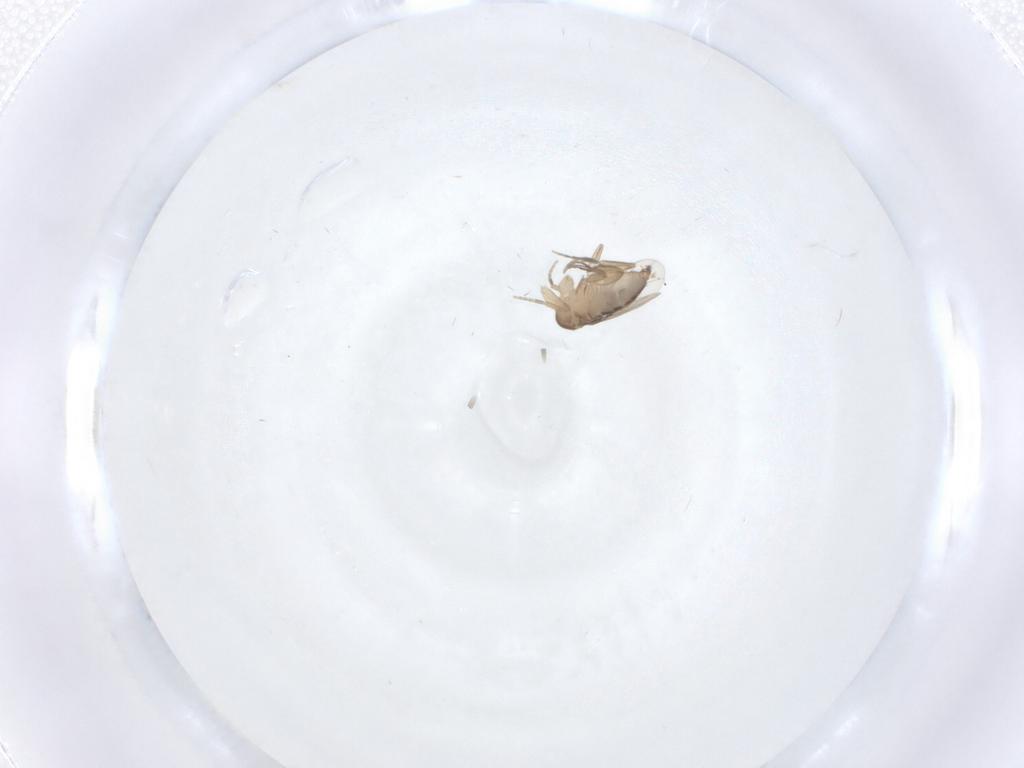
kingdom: Animalia
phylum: Arthropoda
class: Insecta
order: Diptera
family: Phoridae
